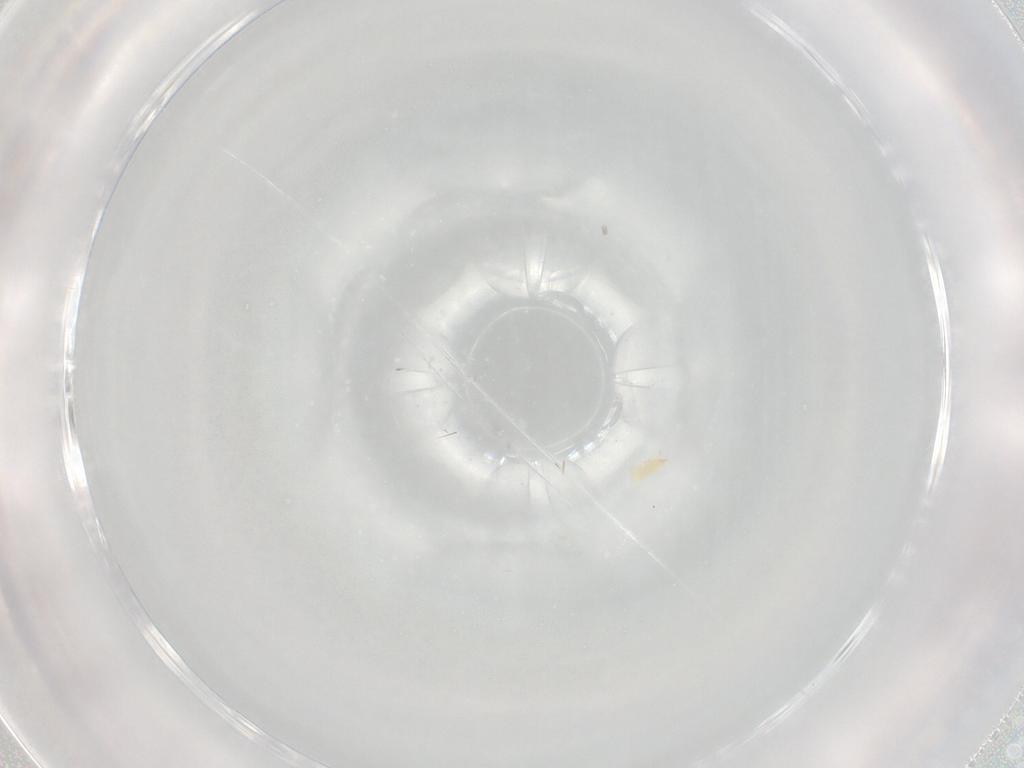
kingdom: Animalia
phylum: Arthropoda
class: Arachnida
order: Trombidiformes
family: Cunaxidae
